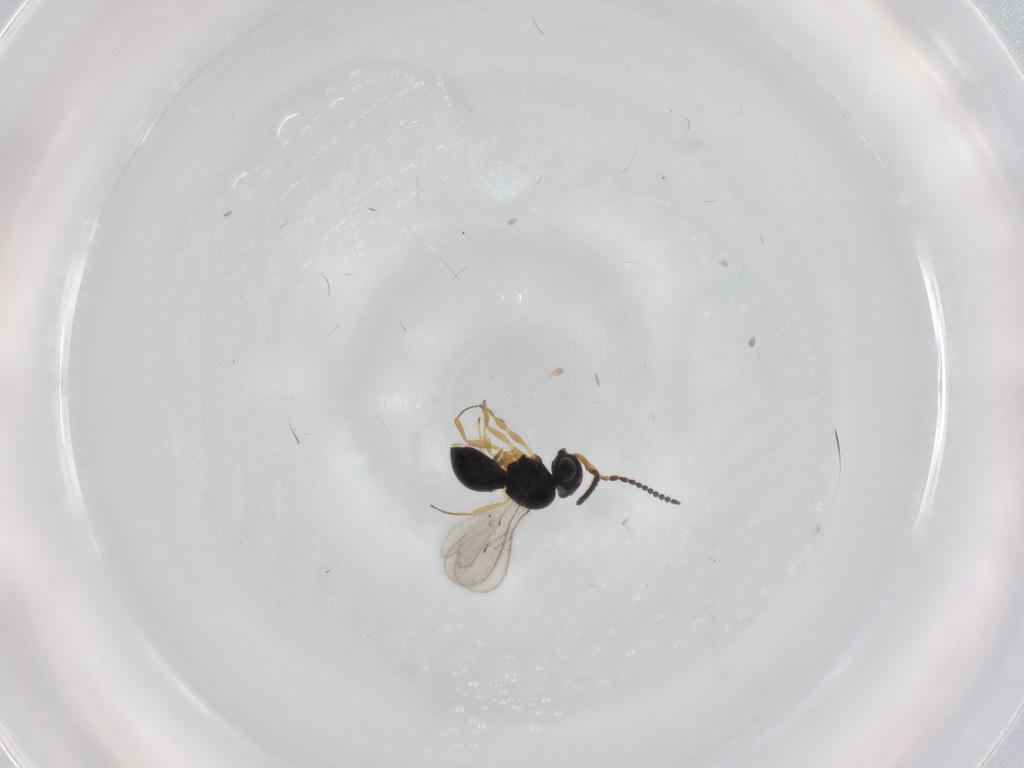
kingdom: Animalia
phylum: Arthropoda
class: Insecta
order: Hymenoptera
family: Scelionidae
